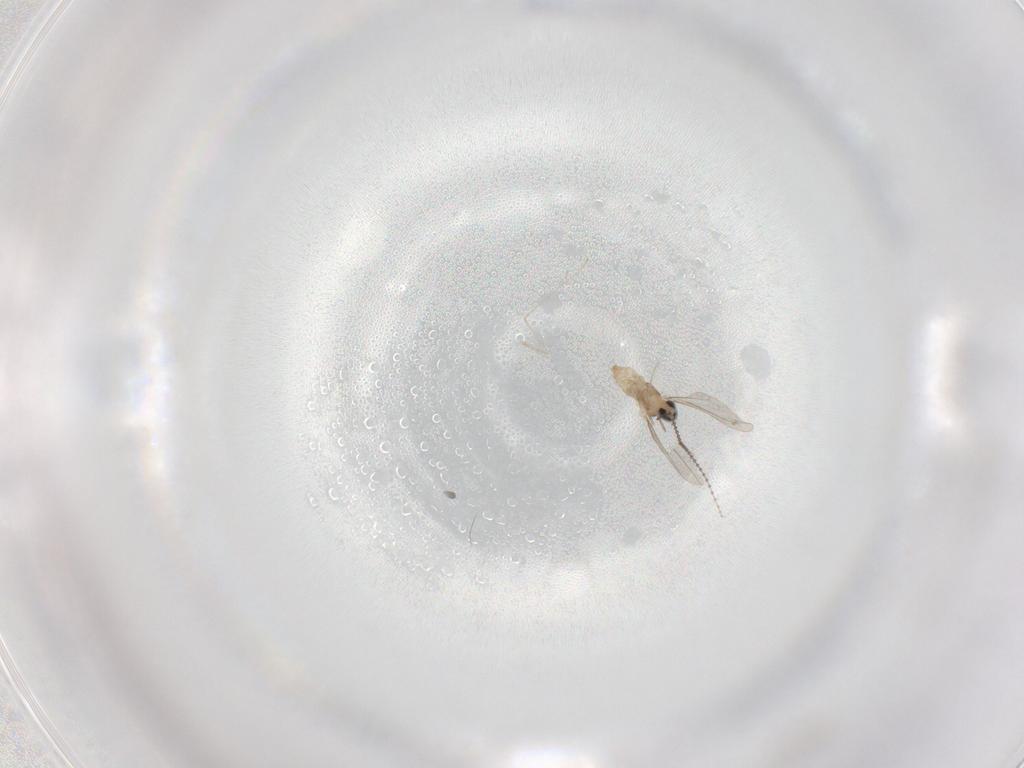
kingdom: Animalia
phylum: Arthropoda
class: Insecta
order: Diptera
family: Cecidomyiidae
